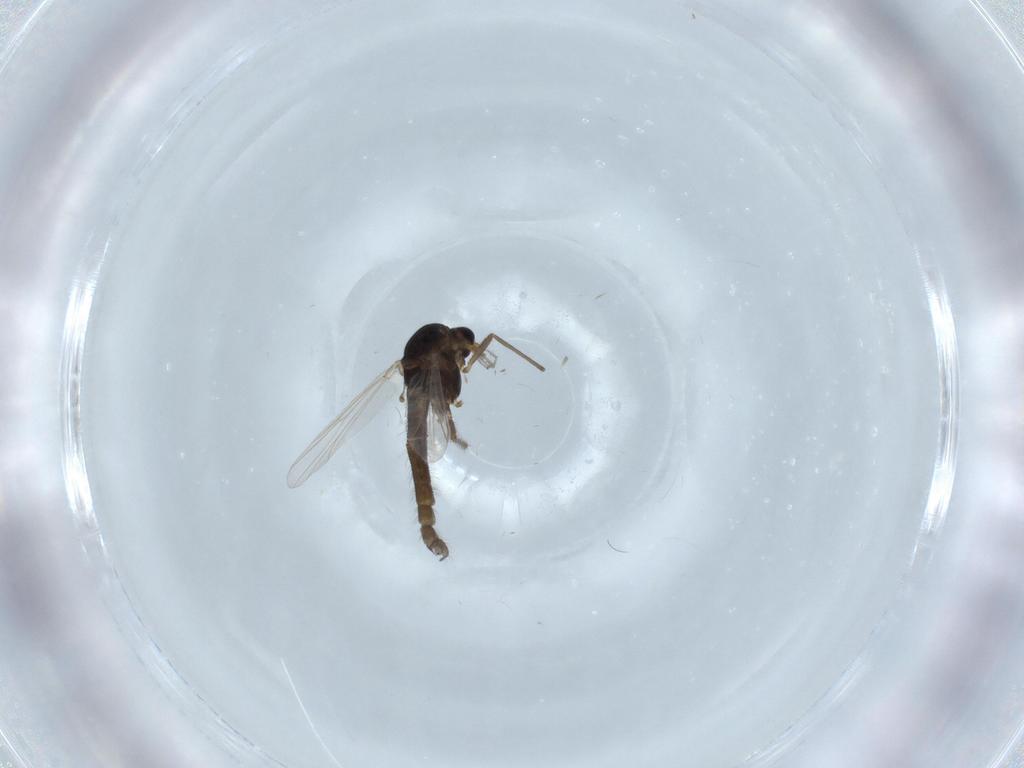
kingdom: Animalia
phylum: Arthropoda
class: Insecta
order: Diptera
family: Chironomidae
